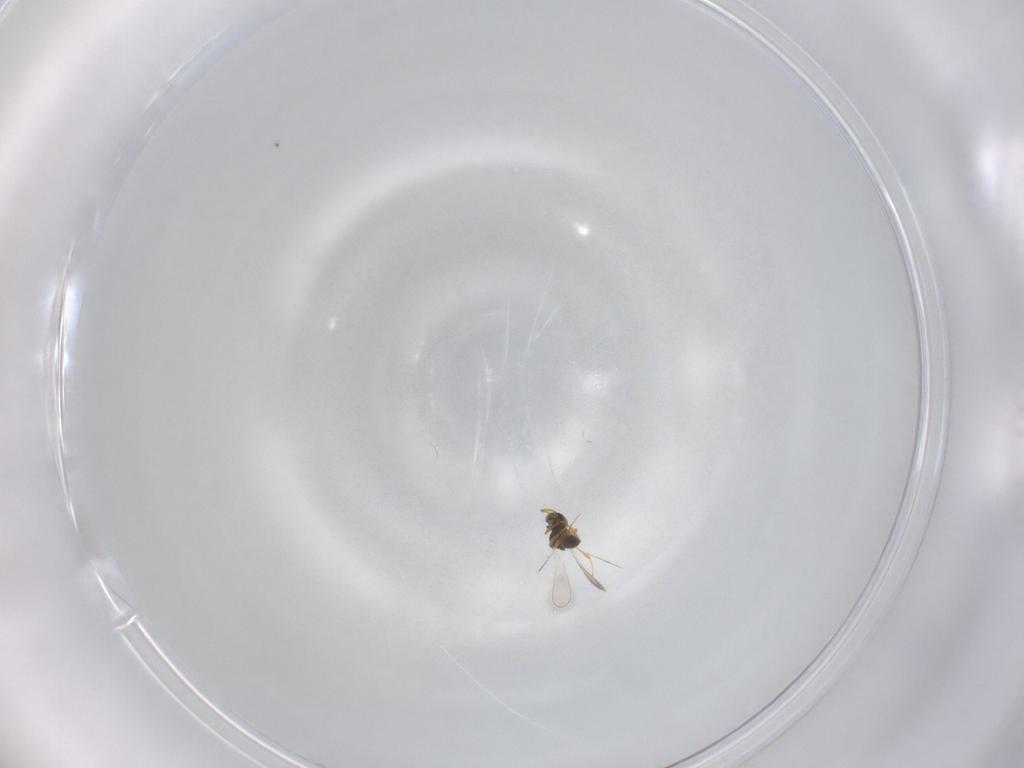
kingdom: Animalia
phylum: Arthropoda
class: Insecta
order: Hymenoptera
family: Platygastridae
